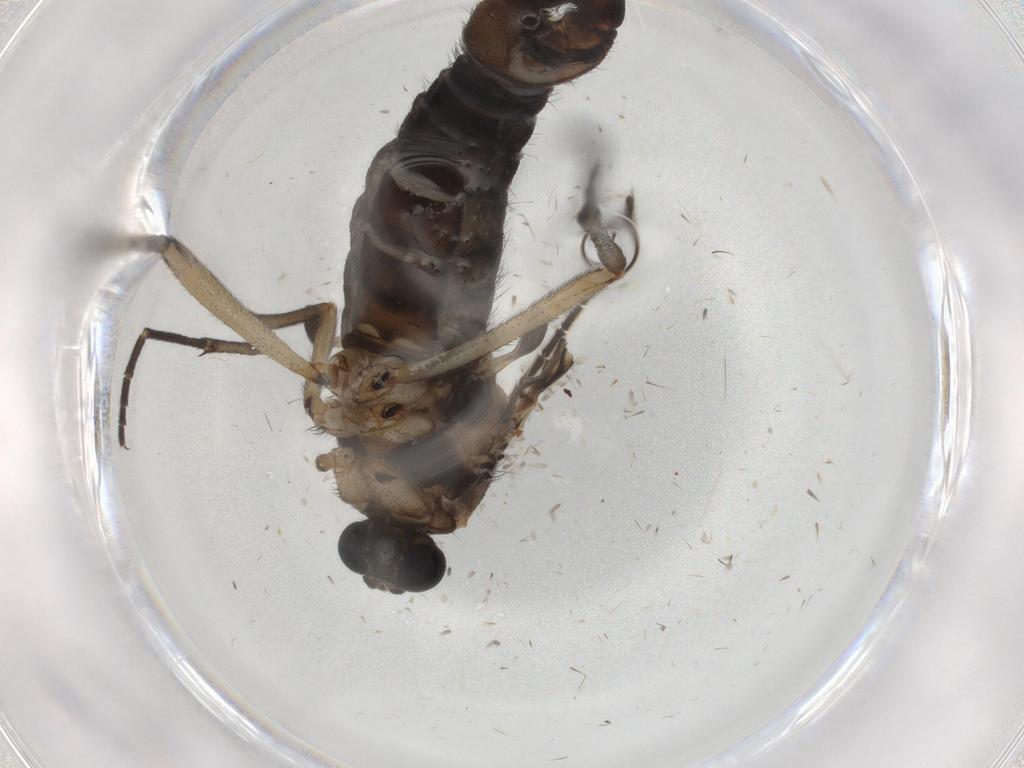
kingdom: Animalia
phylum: Arthropoda
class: Insecta
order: Diptera
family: Sciaridae
